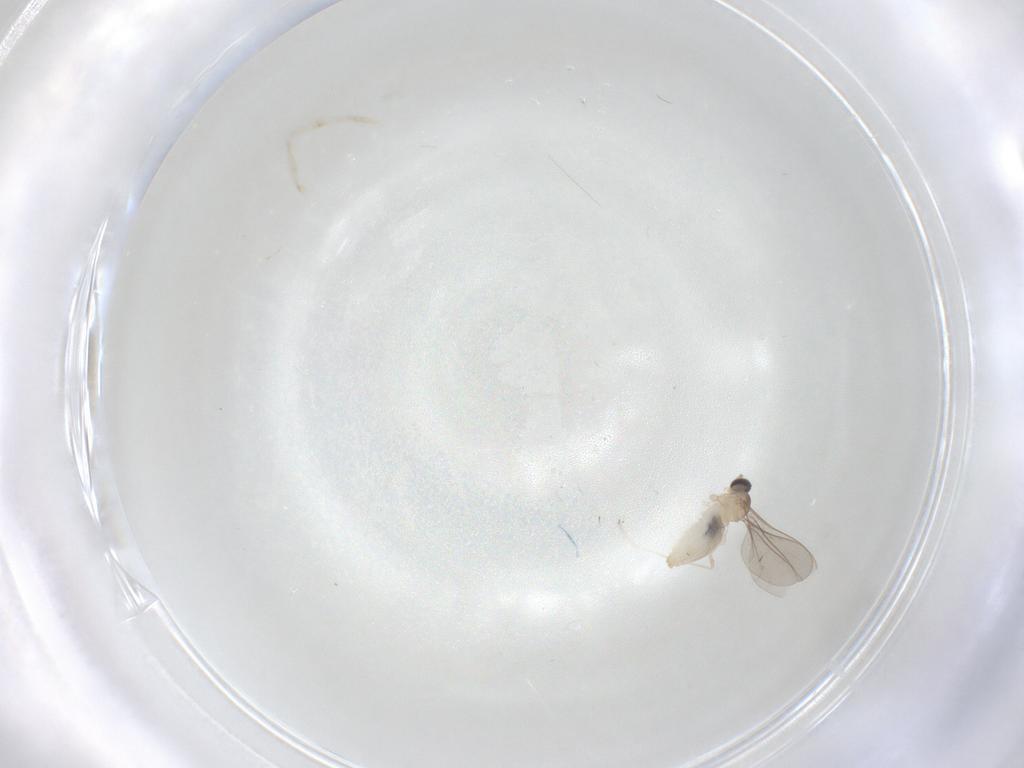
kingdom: Animalia
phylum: Arthropoda
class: Insecta
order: Diptera
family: Cecidomyiidae
